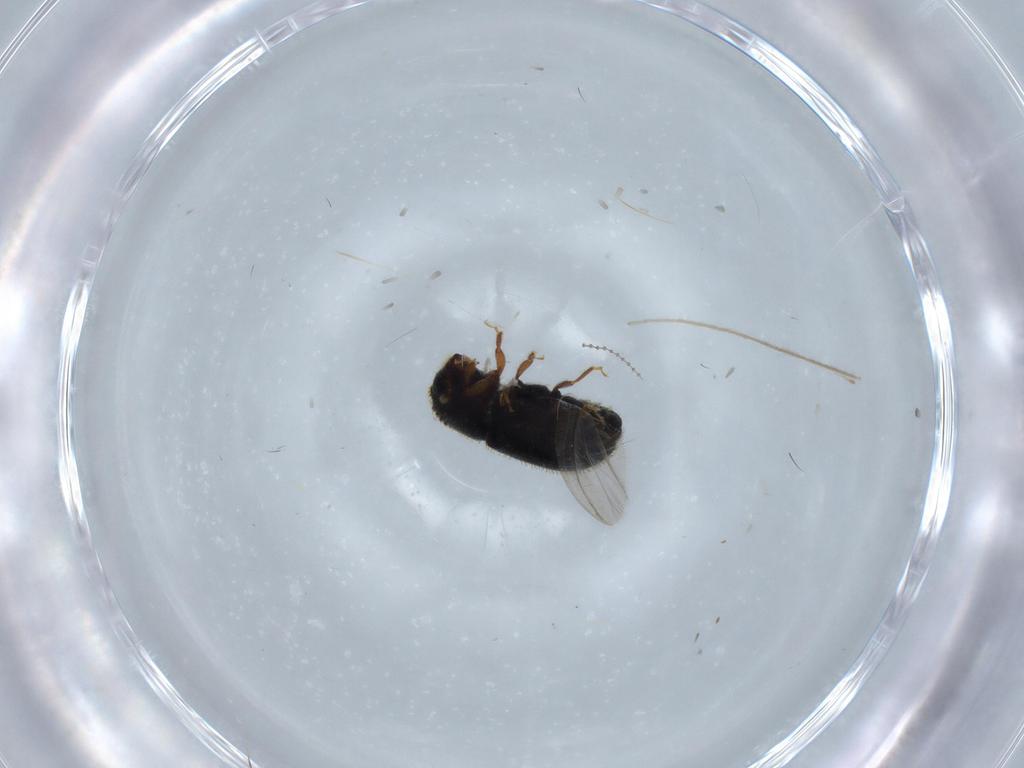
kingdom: Animalia
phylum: Arthropoda
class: Insecta
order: Coleoptera
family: Curculionidae
